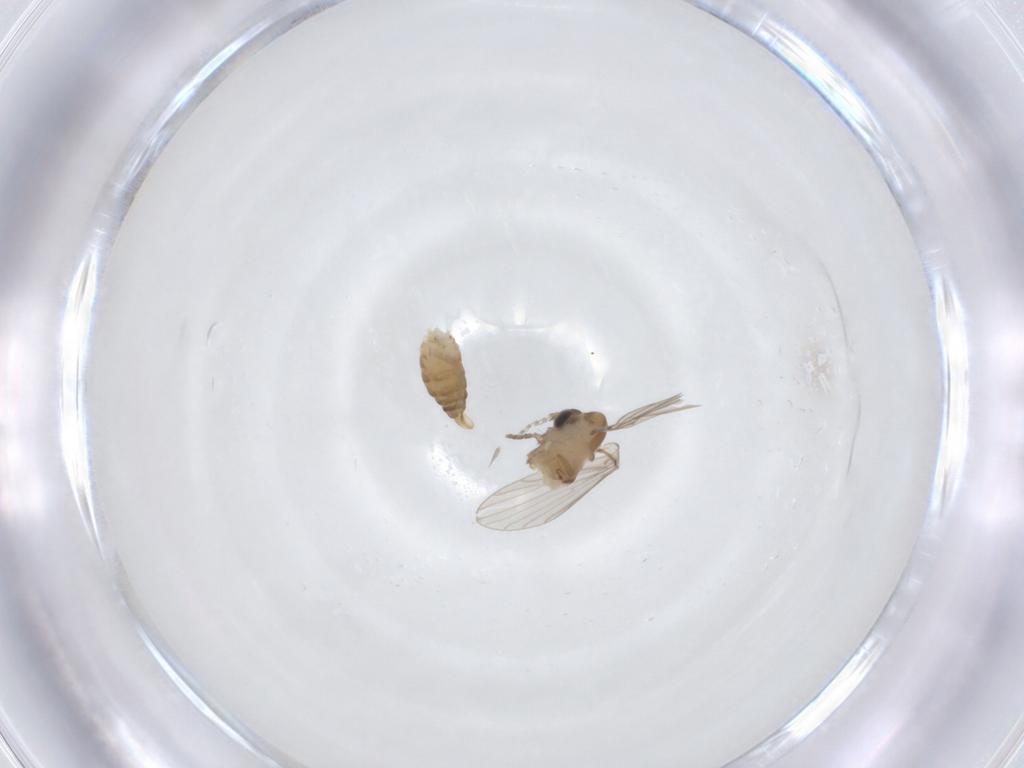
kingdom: Animalia
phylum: Arthropoda
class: Insecta
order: Diptera
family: Psychodidae
